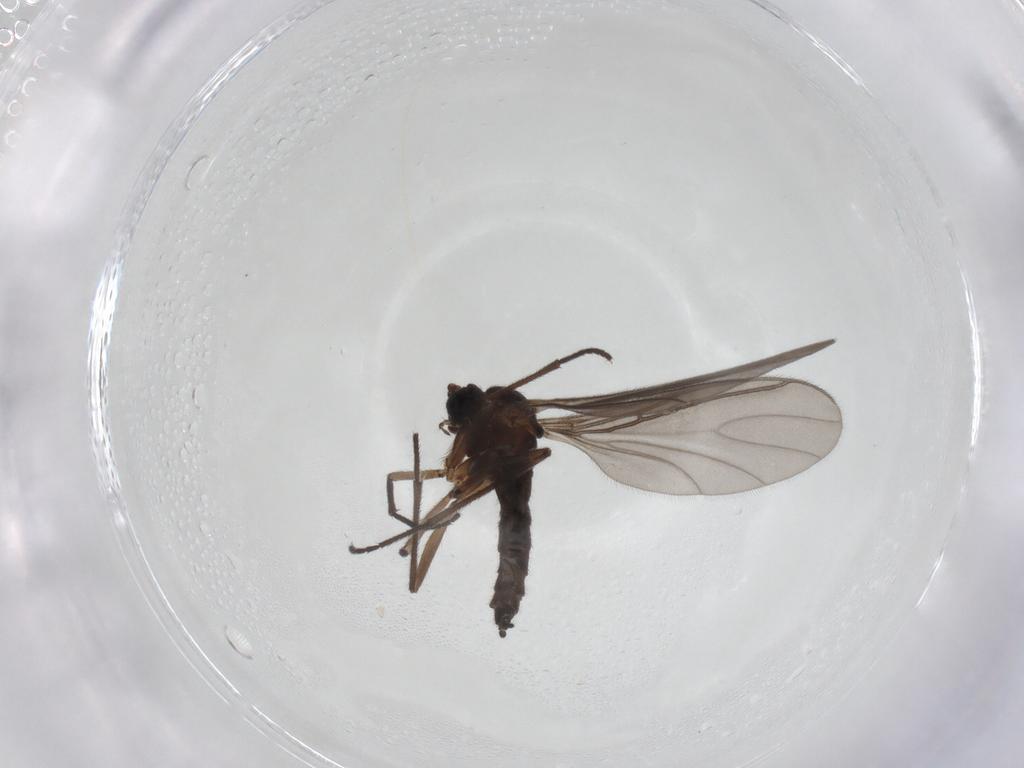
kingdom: Animalia
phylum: Arthropoda
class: Insecta
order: Diptera
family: Sciaridae
